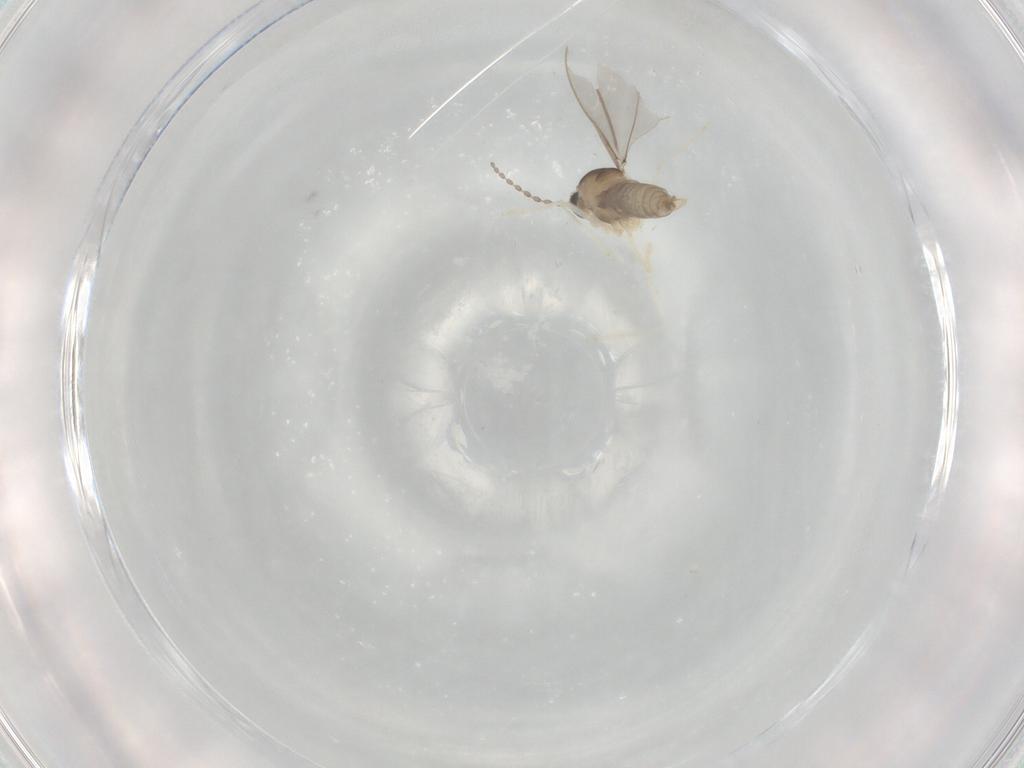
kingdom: Animalia
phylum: Arthropoda
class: Insecta
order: Diptera
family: Cecidomyiidae
